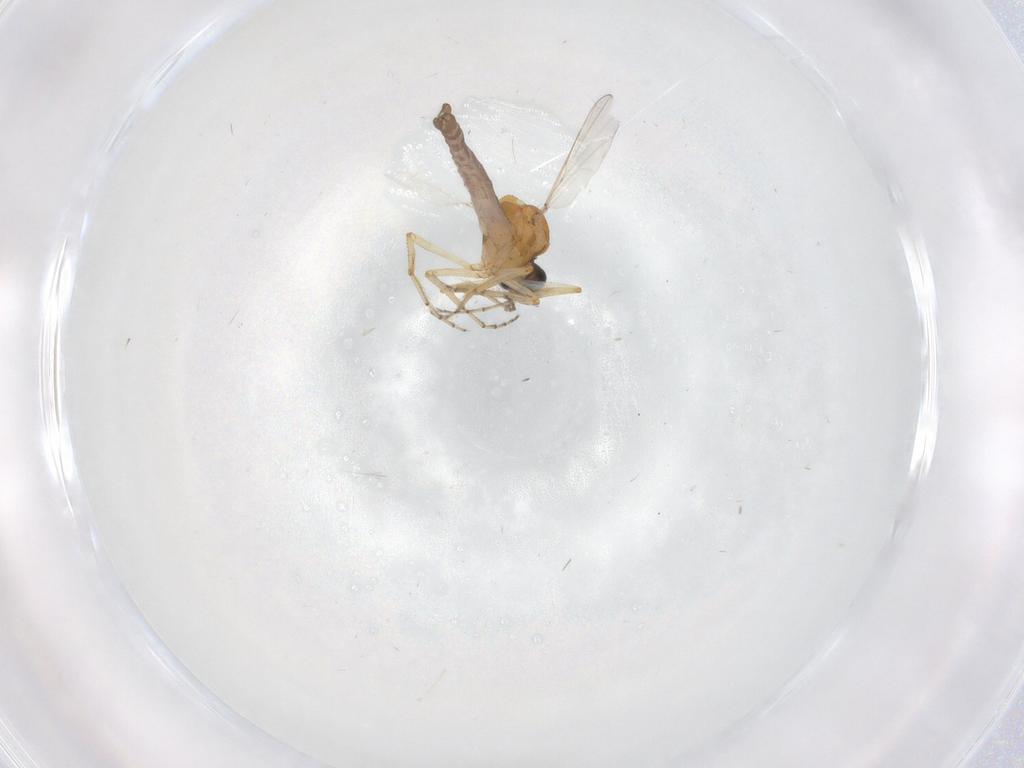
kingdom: Animalia
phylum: Arthropoda
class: Insecta
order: Diptera
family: Ceratopogonidae
